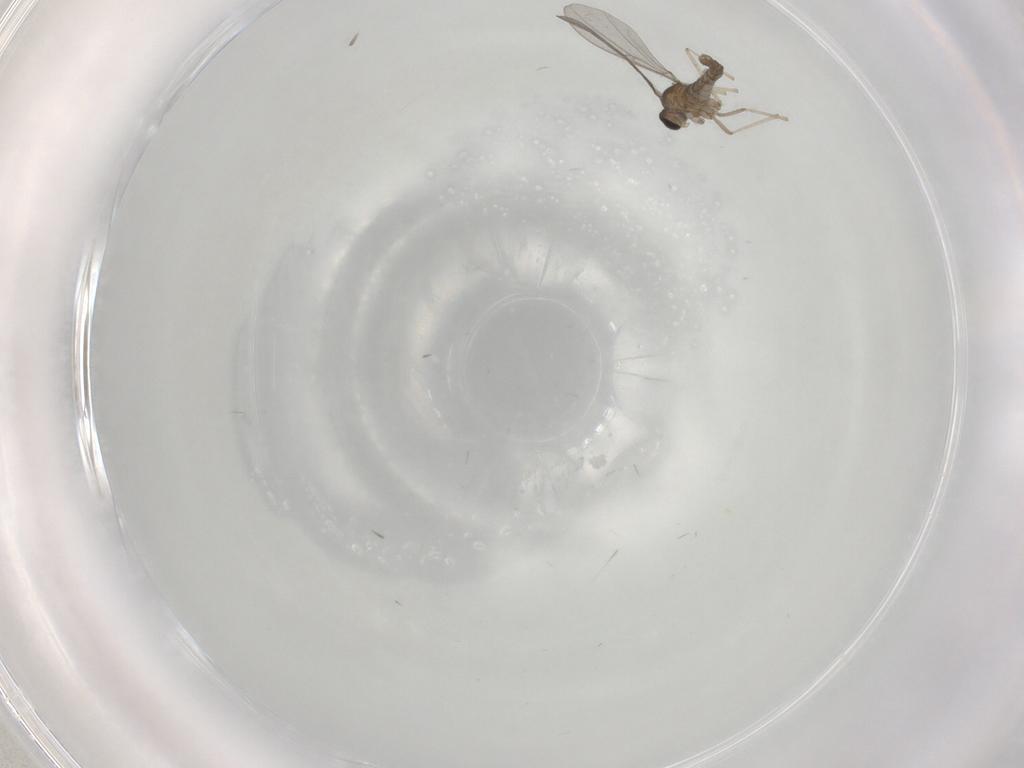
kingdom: Animalia
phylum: Arthropoda
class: Insecta
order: Diptera
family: Cecidomyiidae
